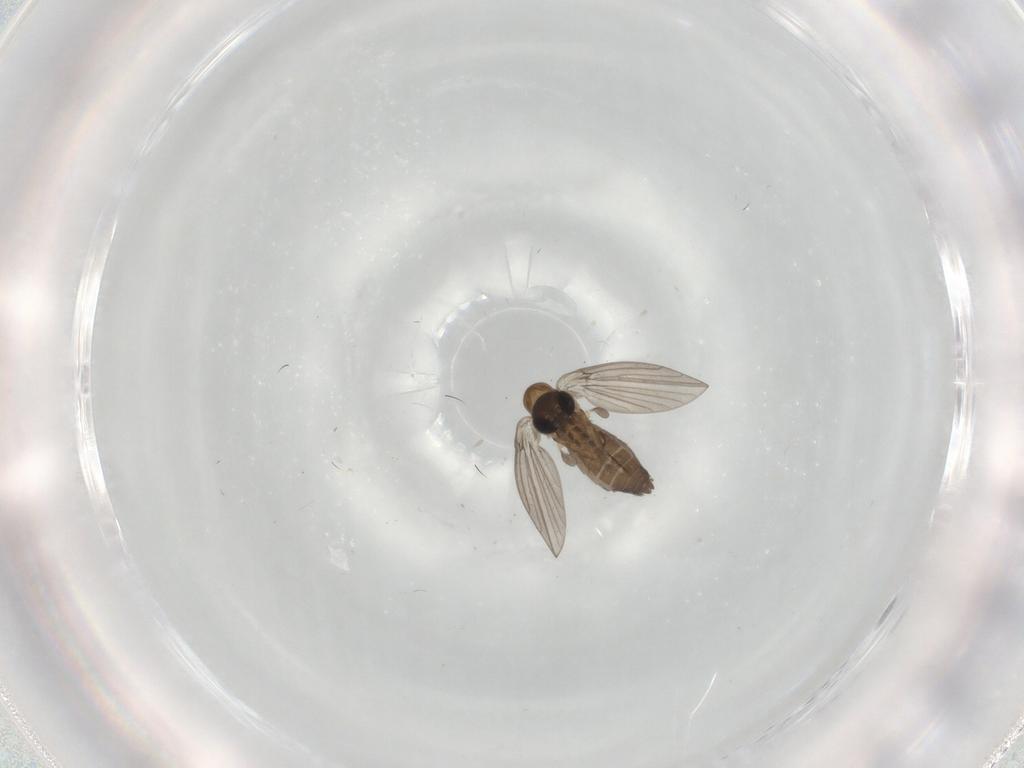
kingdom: Animalia
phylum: Arthropoda
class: Insecta
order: Diptera
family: Psychodidae
